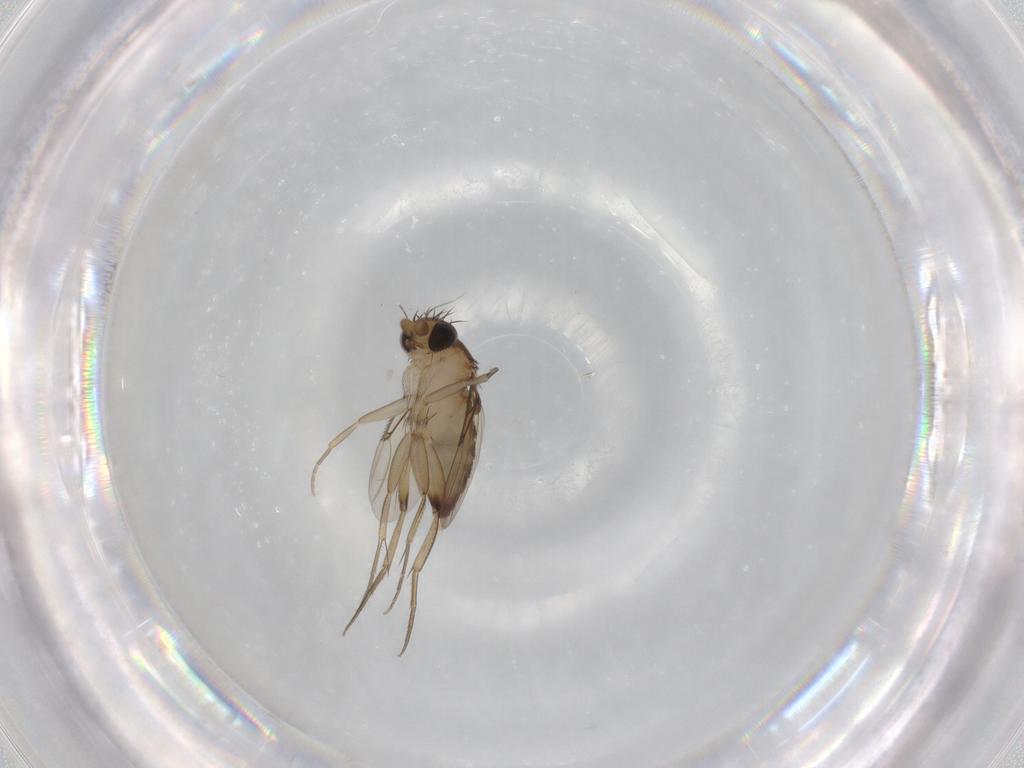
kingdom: Animalia
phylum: Arthropoda
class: Insecta
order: Diptera
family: Phoridae
